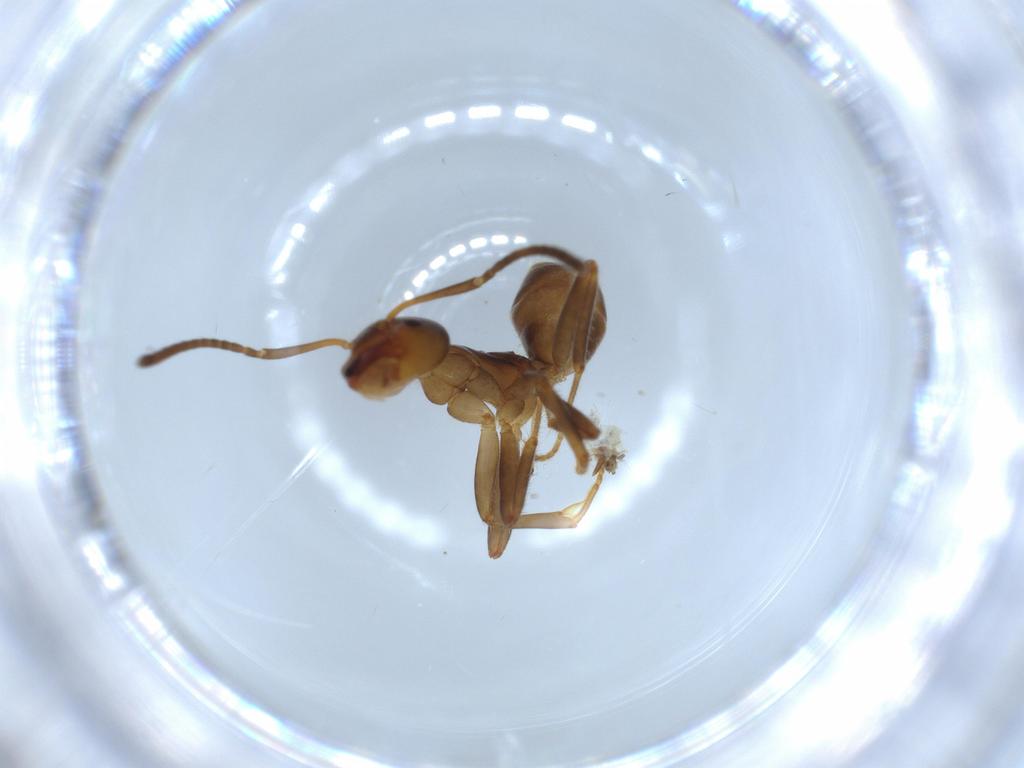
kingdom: Animalia
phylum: Arthropoda
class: Insecta
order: Hymenoptera
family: Formicidae
